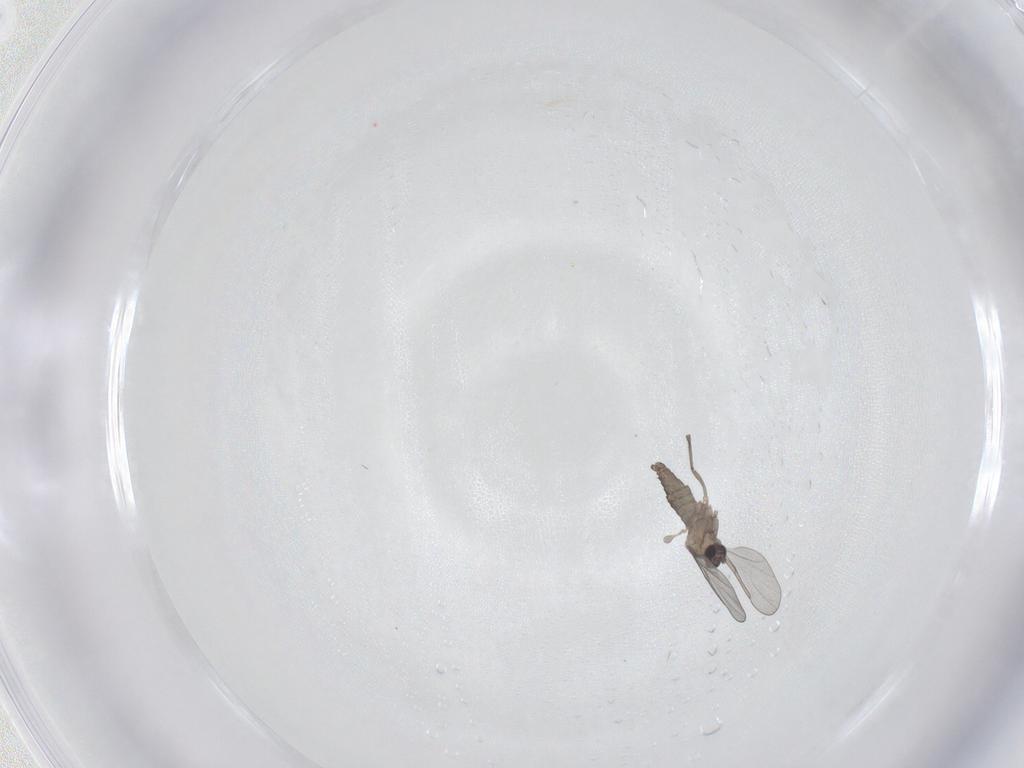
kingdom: Animalia
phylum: Arthropoda
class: Insecta
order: Diptera
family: Cecidomyiidae
